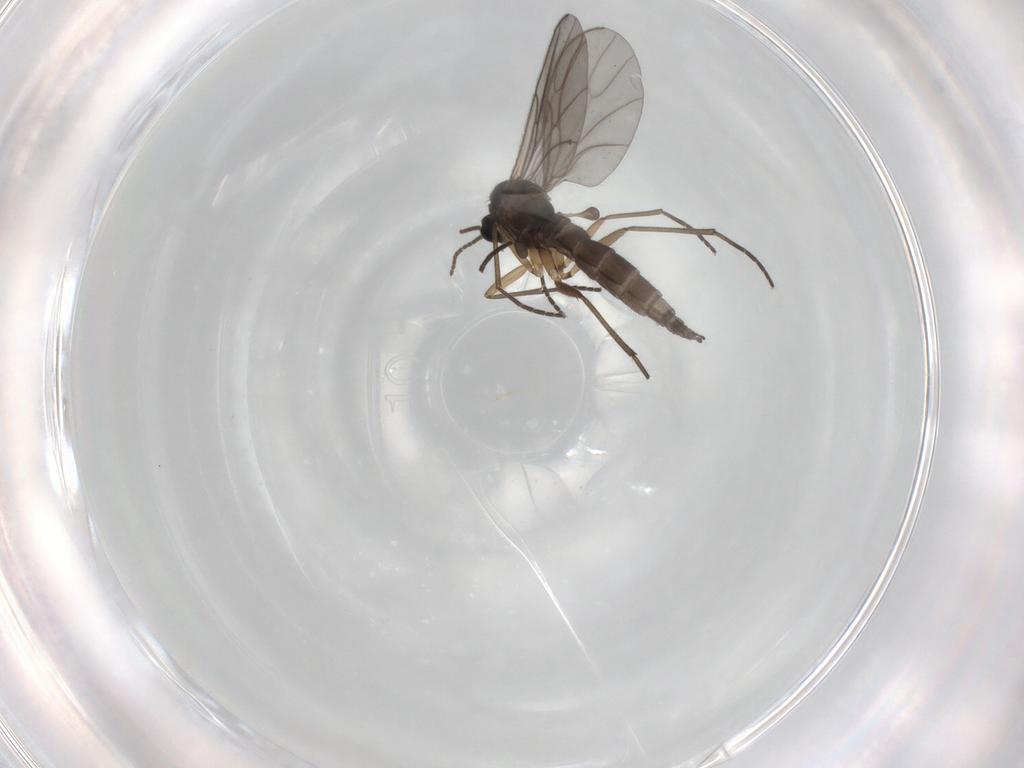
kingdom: Animalia
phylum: Arthropoda
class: Insecta
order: Diptera
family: Sciaridae
